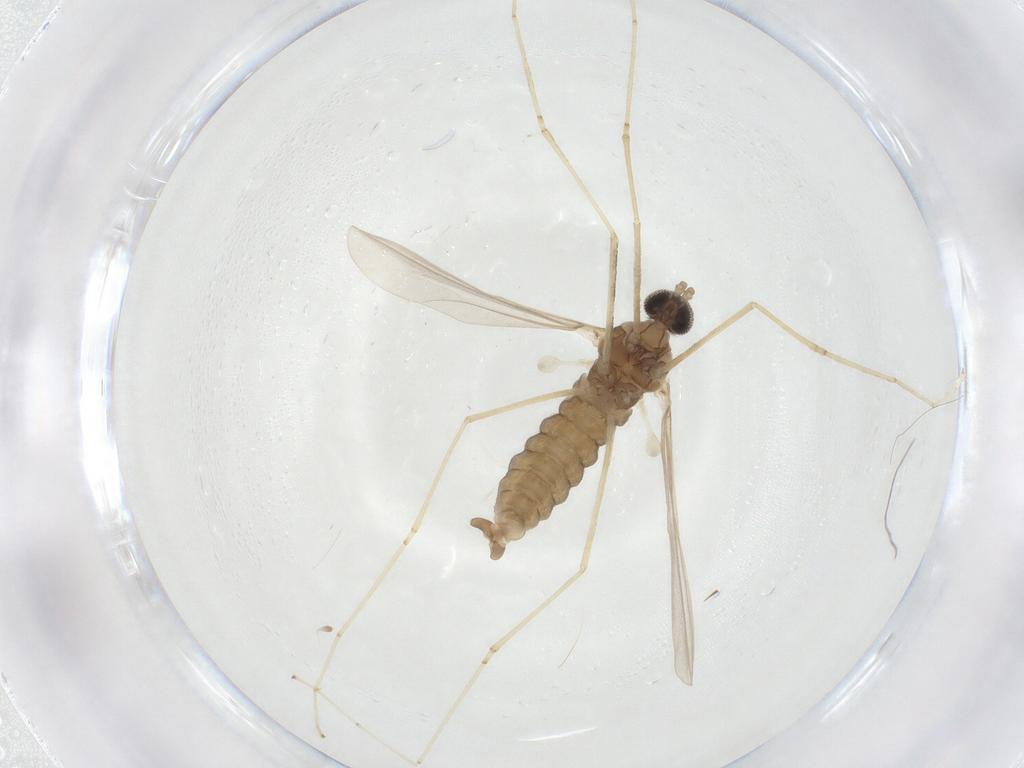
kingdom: Animalia
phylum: Arthropoda
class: Insecta
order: Diptera
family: Cecidomyiidae
